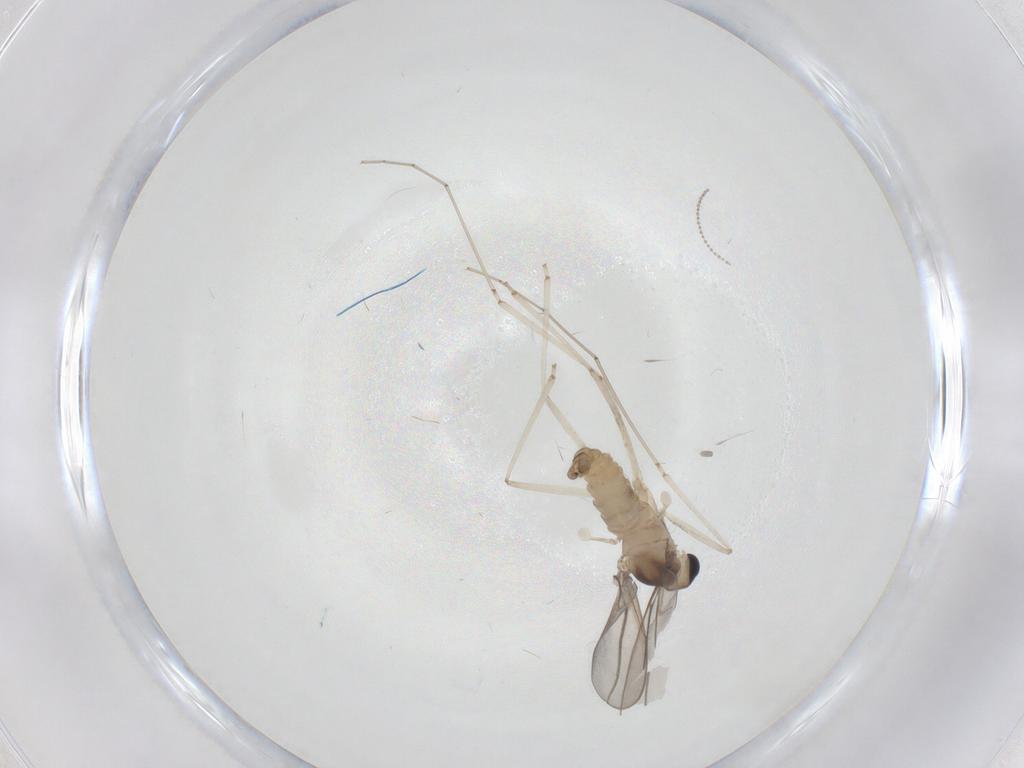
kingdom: Animalia
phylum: Arthropoda
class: Insecta
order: Diptera
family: Cecidomyiidae
